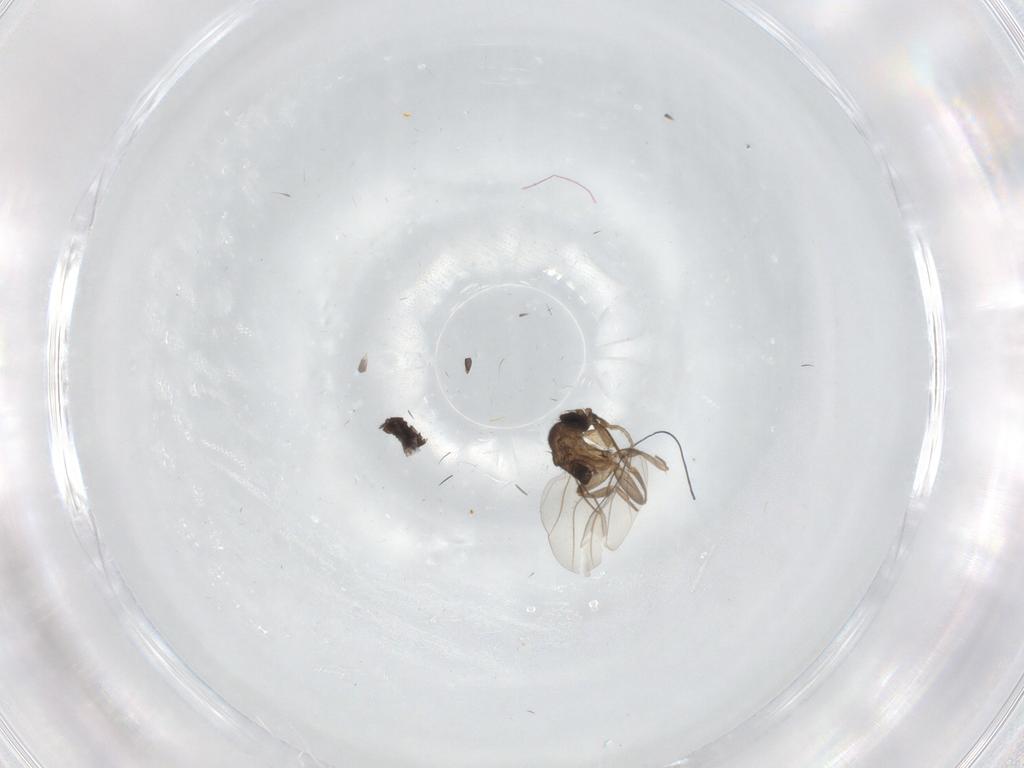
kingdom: Animalia
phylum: Arthropoda
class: Insecta
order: Diptera
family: Phoridae
